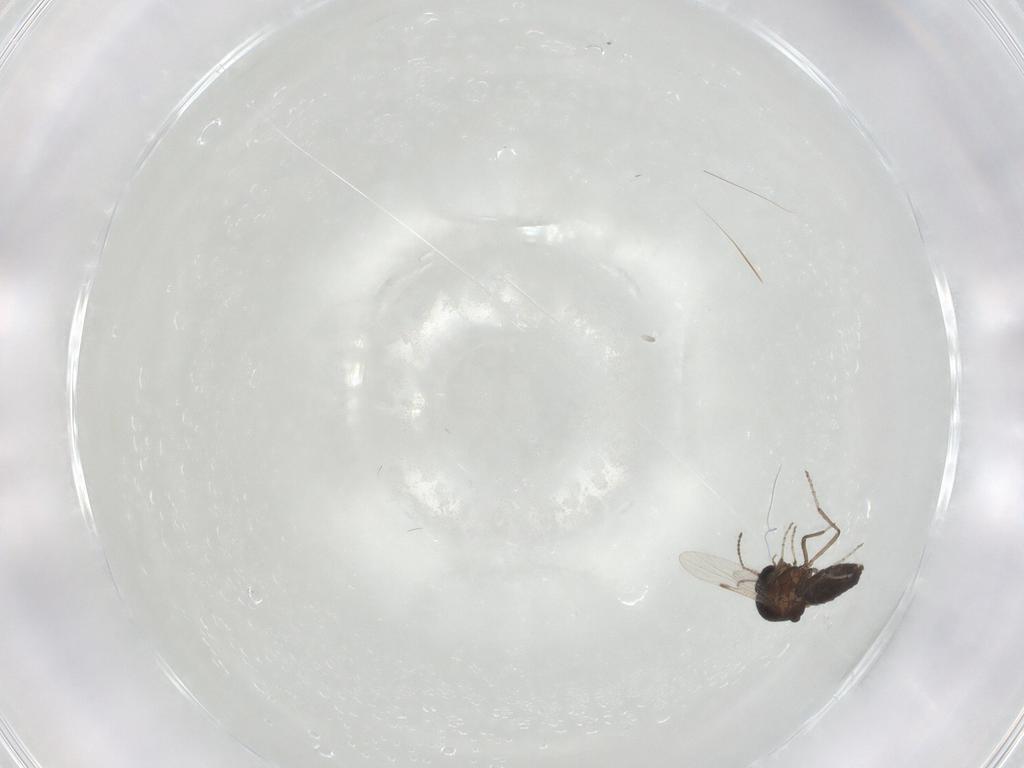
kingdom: Animalia
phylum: Arthropoda
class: Insecta
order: Diptera
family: Ceratopogonidae
